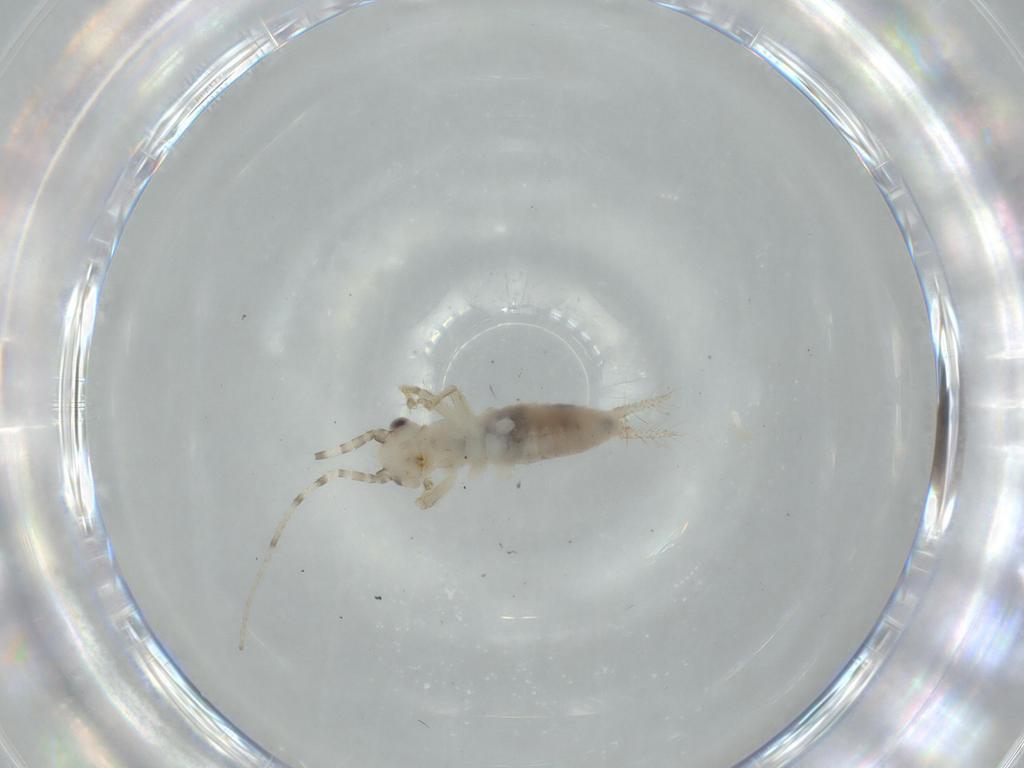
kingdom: Animalia
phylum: Arthropoda
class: Insecta
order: Orthoptera
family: Trigonidiidae
